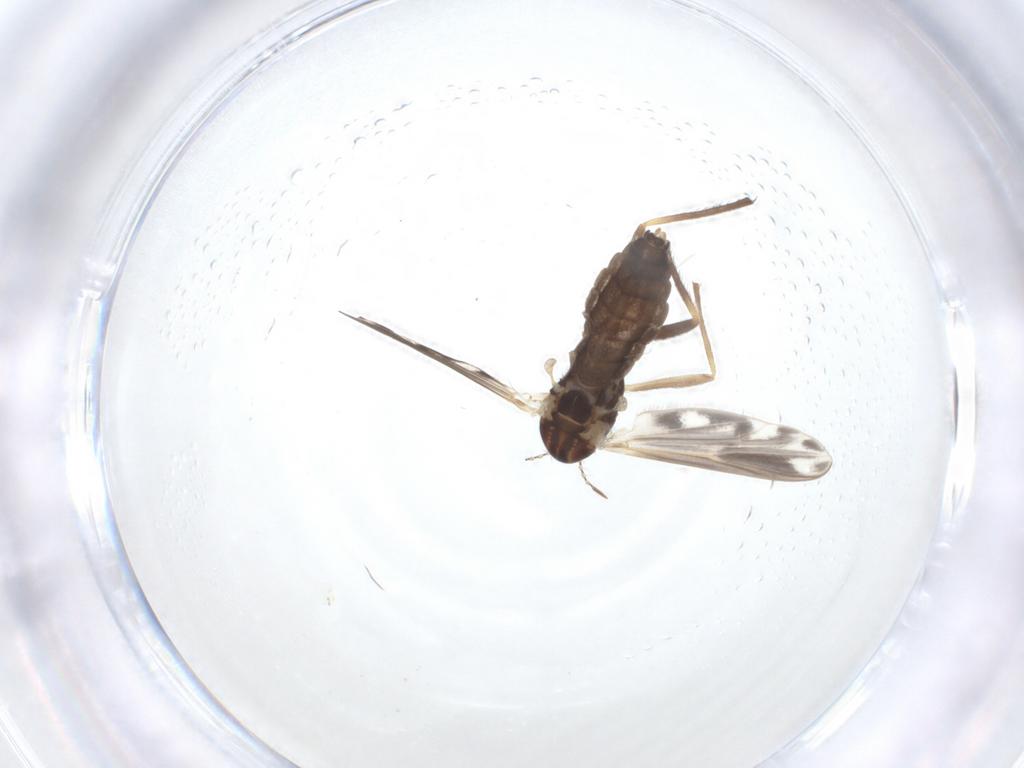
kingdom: Animalia
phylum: Arthropoda
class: Insecta
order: Diptera
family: Chironomidae
